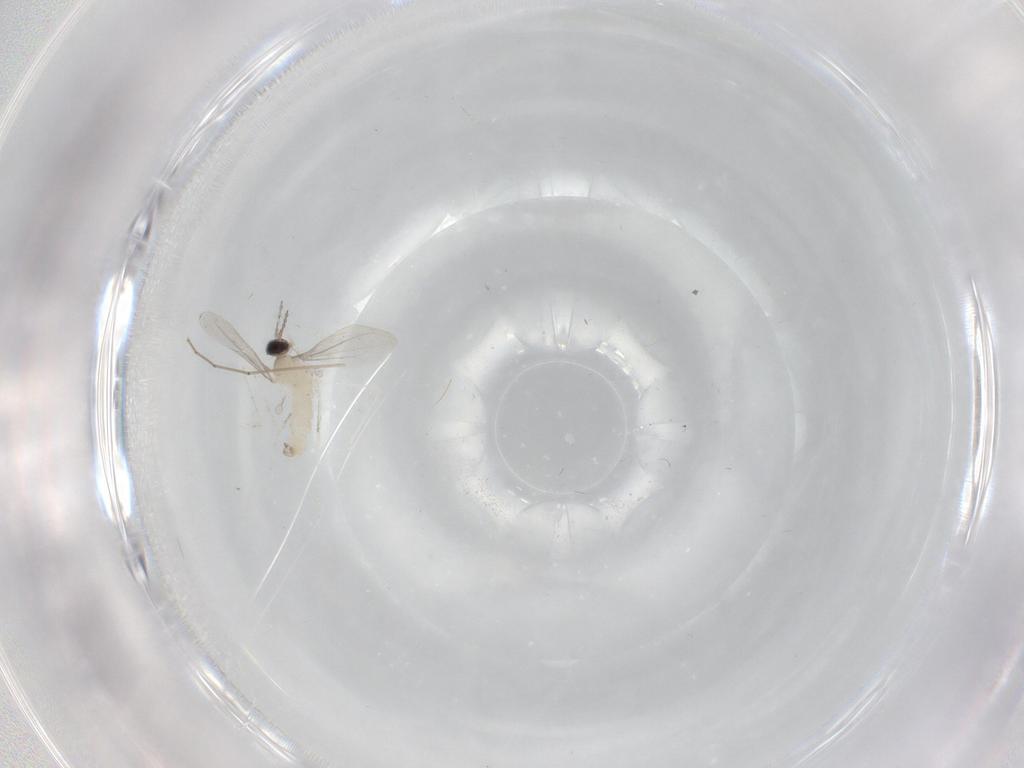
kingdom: Animalia
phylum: Arthropoda
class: Insecta
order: Diptera
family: Cecidomyiidae
